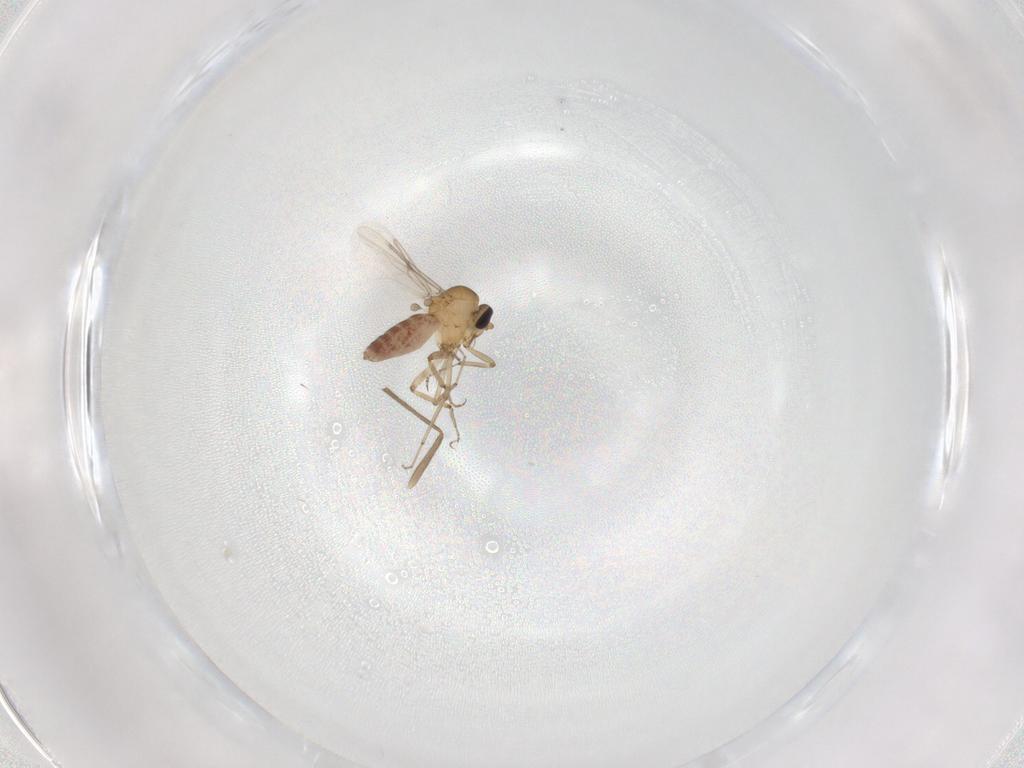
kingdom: Animalia
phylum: Arthropoda
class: Insecta
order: Diptera
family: Chironomidae
